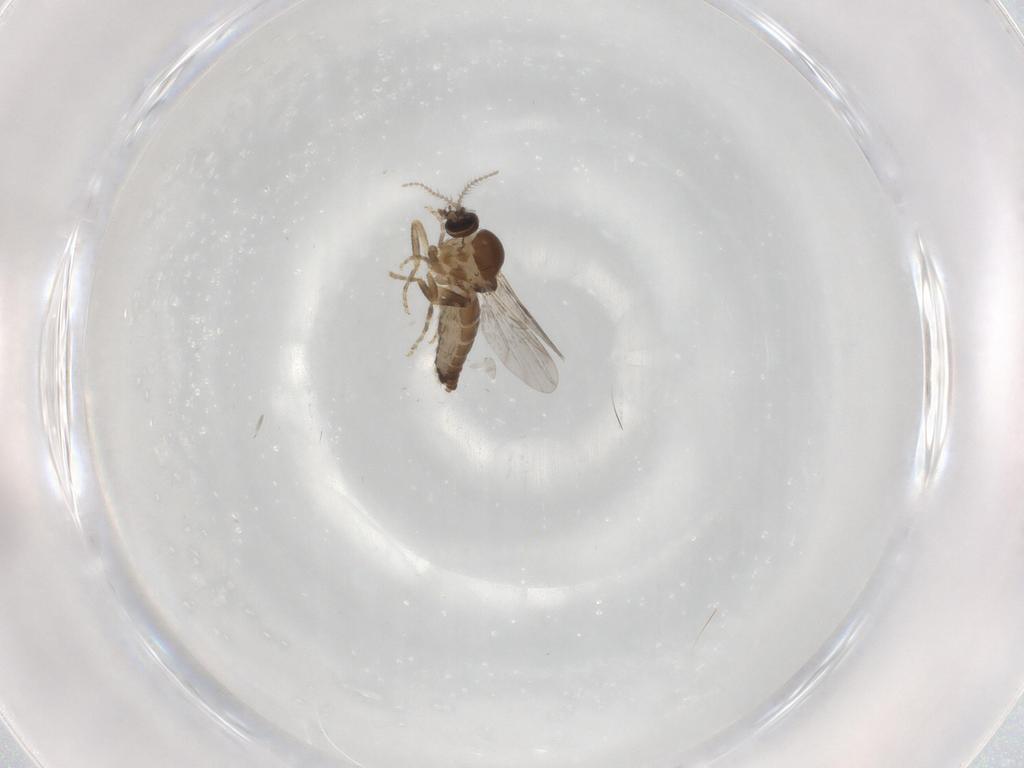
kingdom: Animalia
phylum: Arthropoda
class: Insecta
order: Diptera
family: Ceratopogonidae
